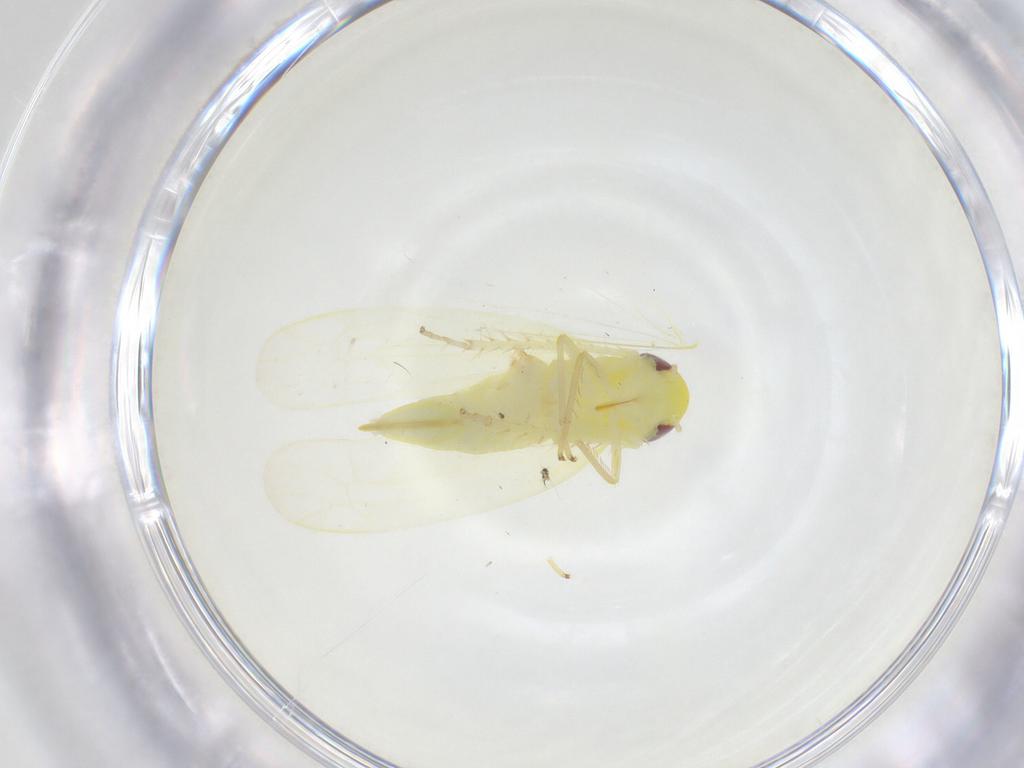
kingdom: Animalia
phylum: Arthropoda
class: Insecta
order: Hemiptera
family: Cicadellidae
